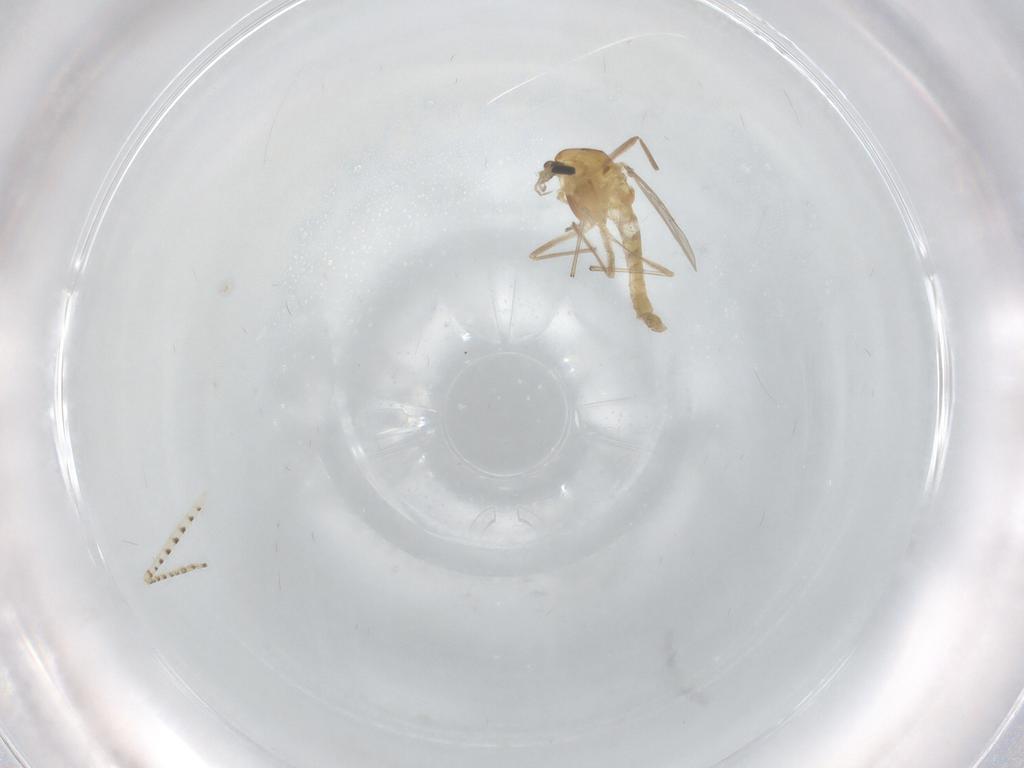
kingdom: Animalia
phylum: Arthropoda
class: Insecta
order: Diptera
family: Chironomidae
